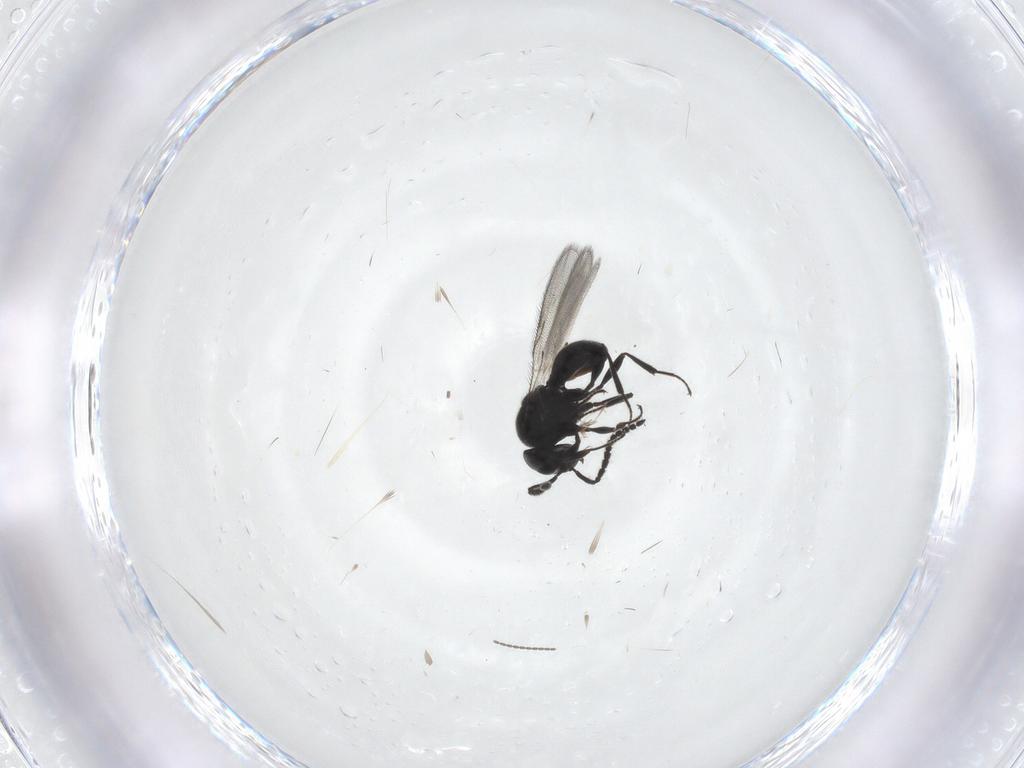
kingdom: Animalia
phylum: Arthropoda
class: Insecta
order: Hymenoptera
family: Scelionidae
